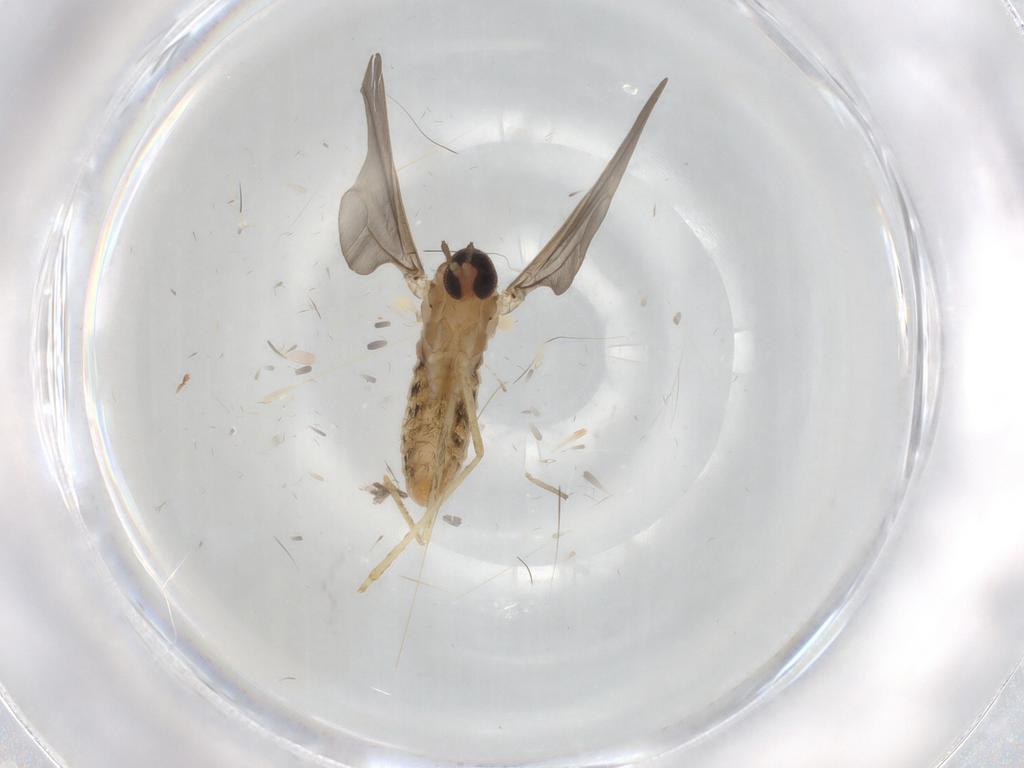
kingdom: Animalia
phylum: Arthropoda
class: Insecta
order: Diptera
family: Cecidomyiidae
